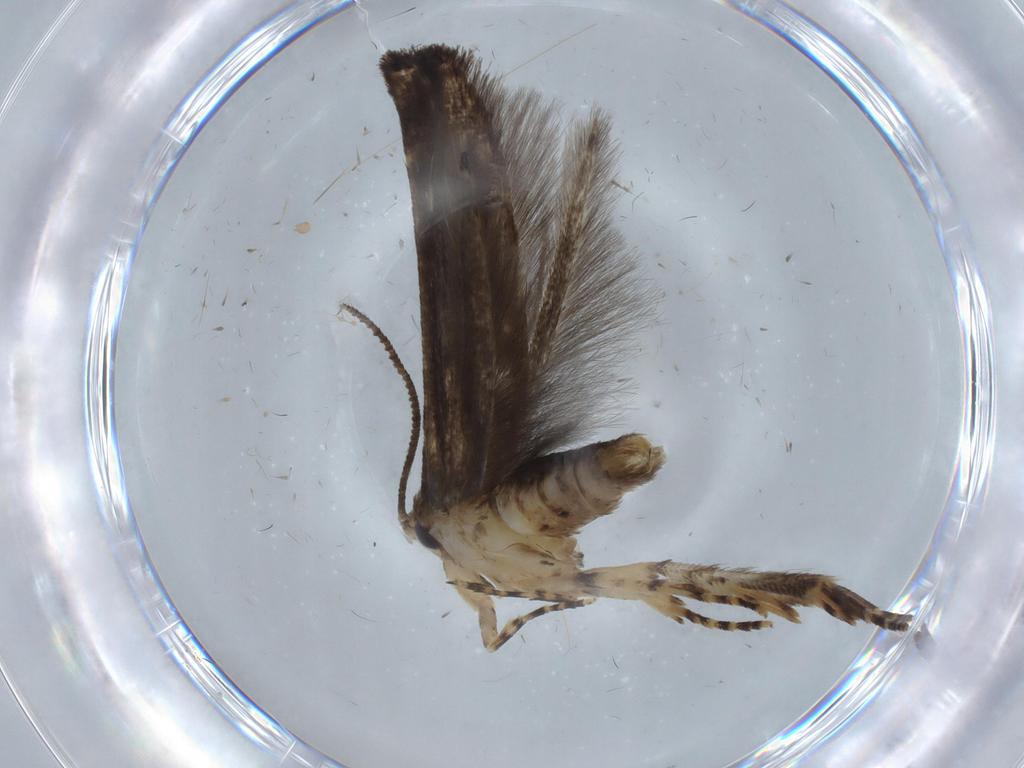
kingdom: Animalia
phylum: Arthropoda
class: Insecta
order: Lepidoptera
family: Cosmopterigidae
